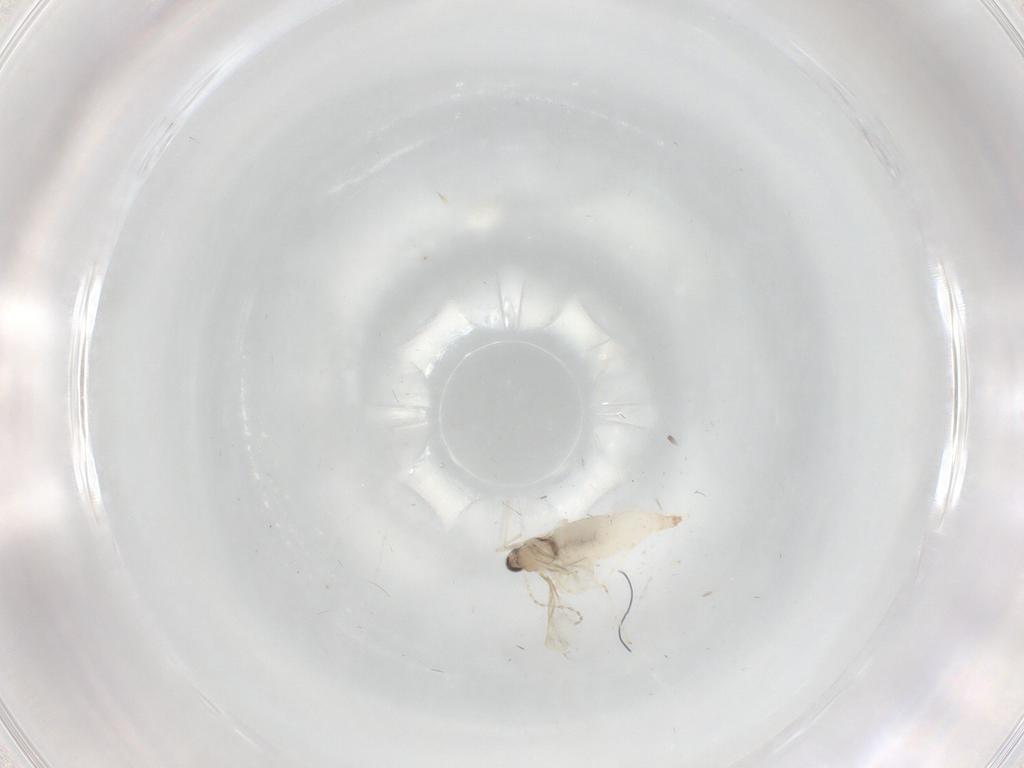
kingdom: Animalia
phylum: Arthropoda
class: Insecta
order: Diptera
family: Cecidomyiidae
